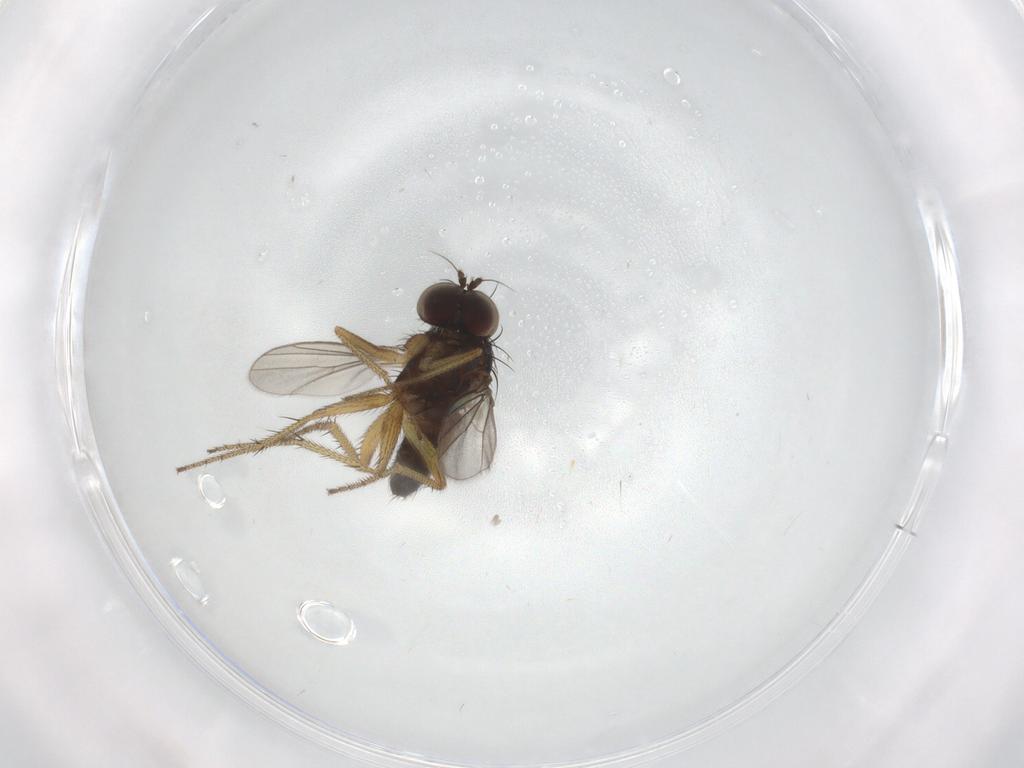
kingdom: Animalia
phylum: Arthropoda
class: Insecta
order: Diptera
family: Dolichopodidae
